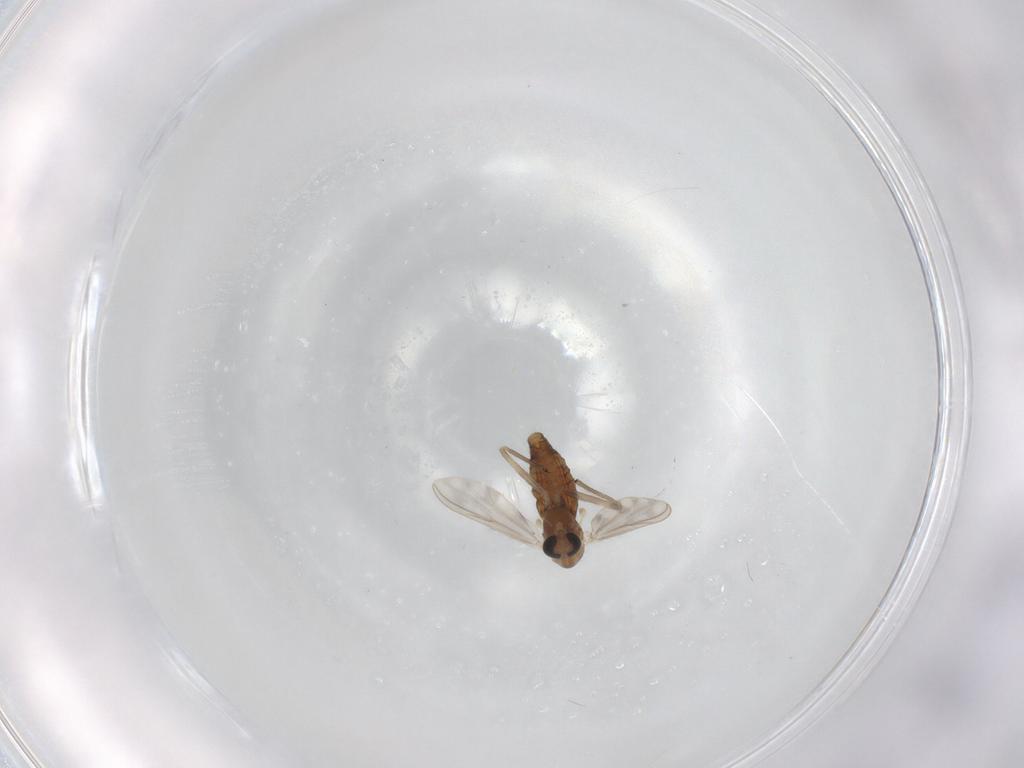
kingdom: Animalia
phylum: Arthropoda
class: Insecta
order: Diptera
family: Chironomidae
